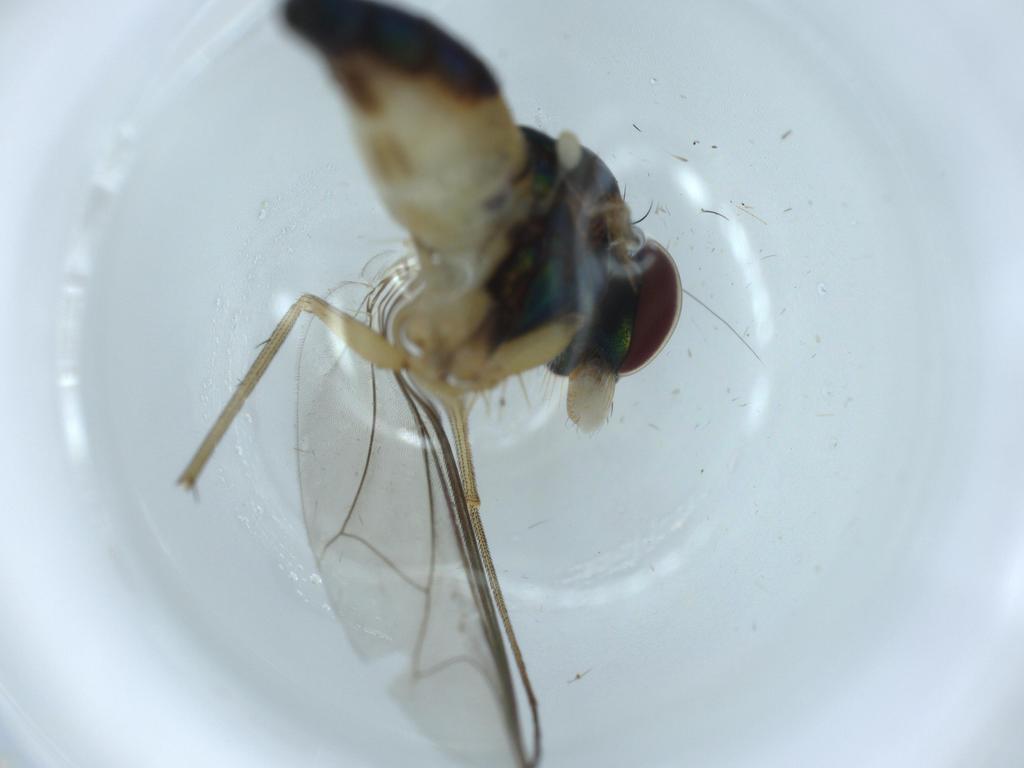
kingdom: Animalia
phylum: Arthropoda
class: Insecta
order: Diptera
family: Dolichopodidae
